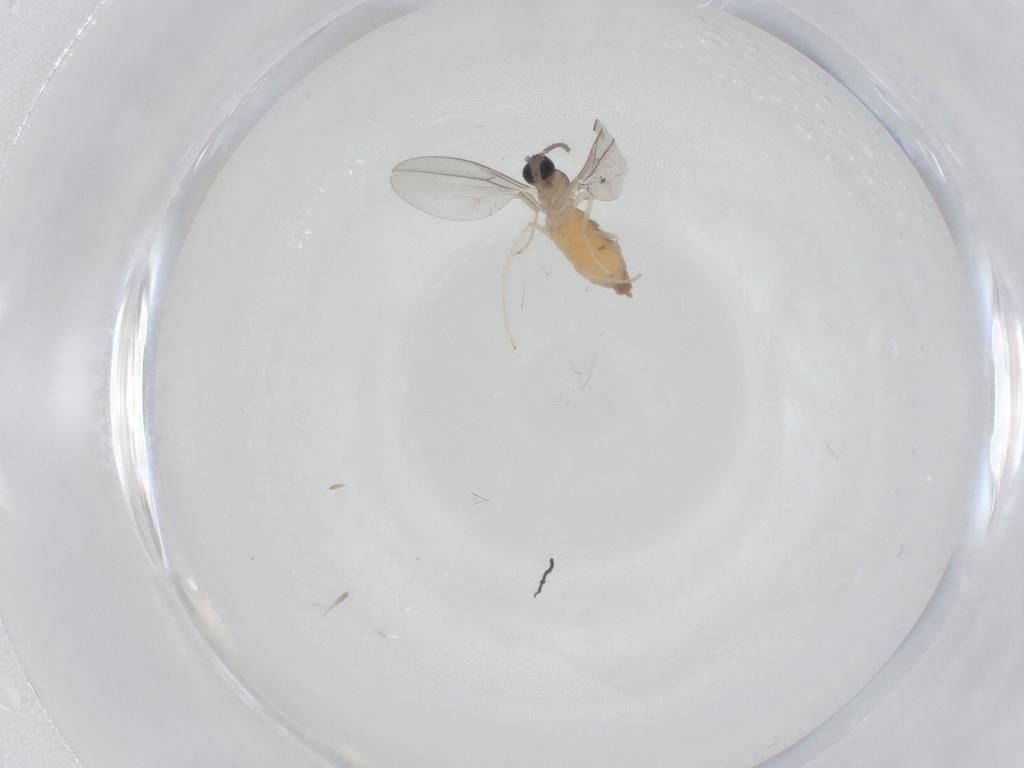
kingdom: Animalia
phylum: Arthropoda
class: Insecta
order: Diptera
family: Cecidomyiidae
